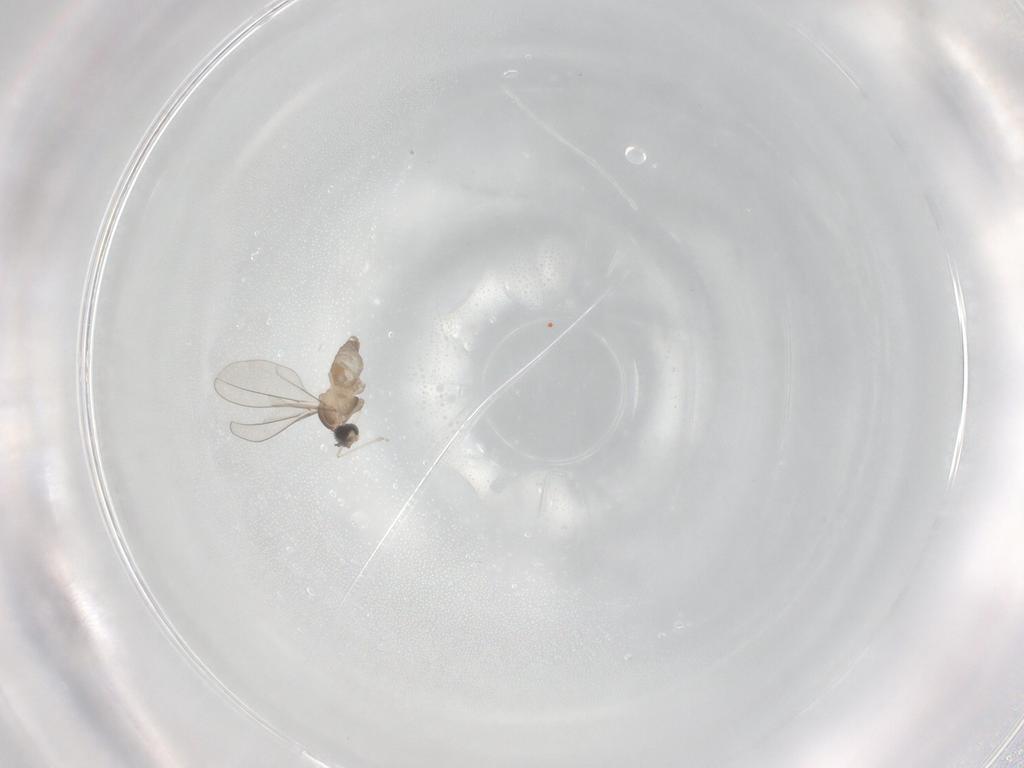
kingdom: Animalia
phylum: Arthropoda
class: Insecta
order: Diptera
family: Cecidomyiidae
